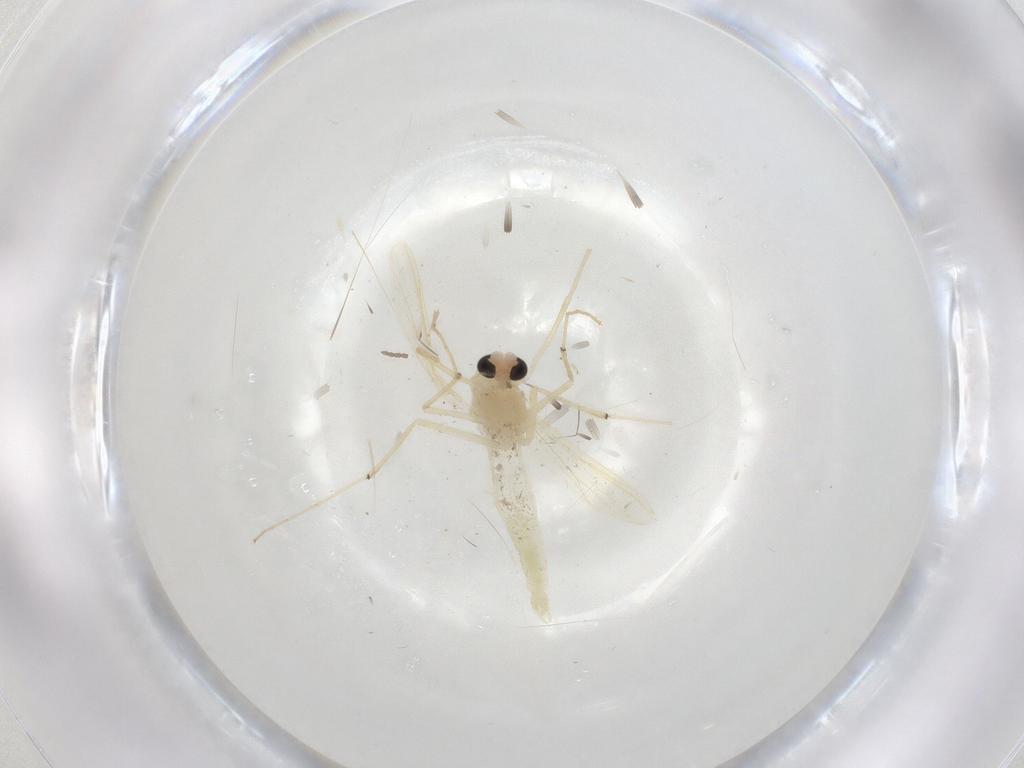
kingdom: Animalia
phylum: Arthropoda
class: Insecta
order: Diptera
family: Chironomidae
